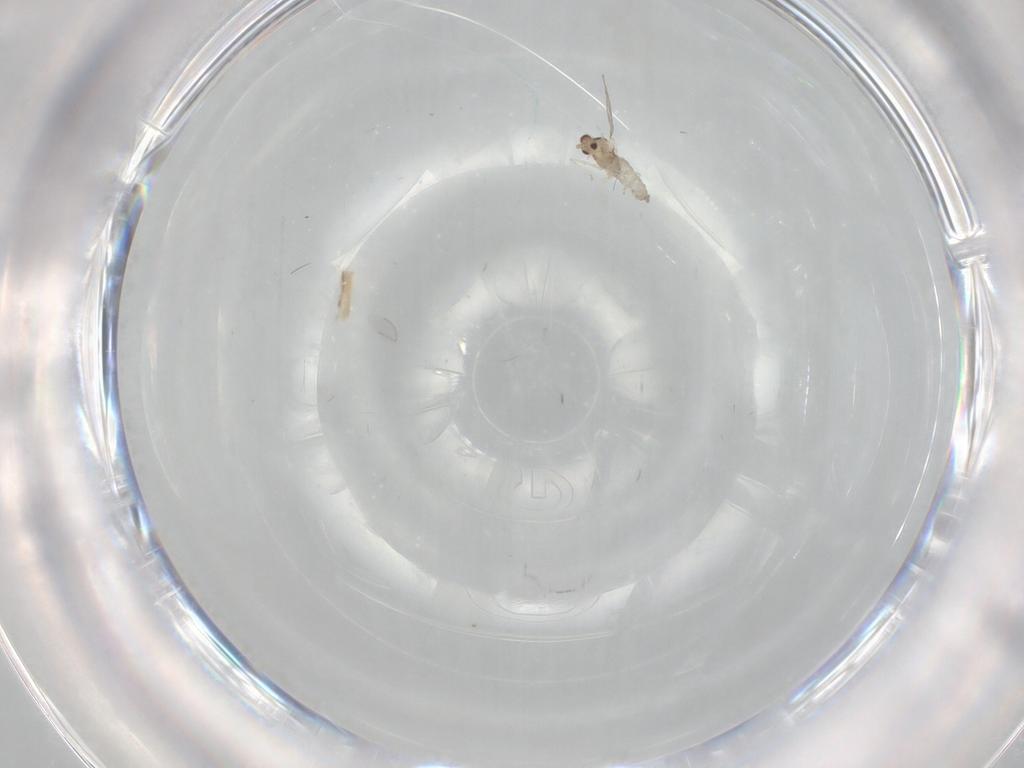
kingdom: Animalia
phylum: Arthropoda
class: Insecta
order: Diptera
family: Cecidomyiidae
